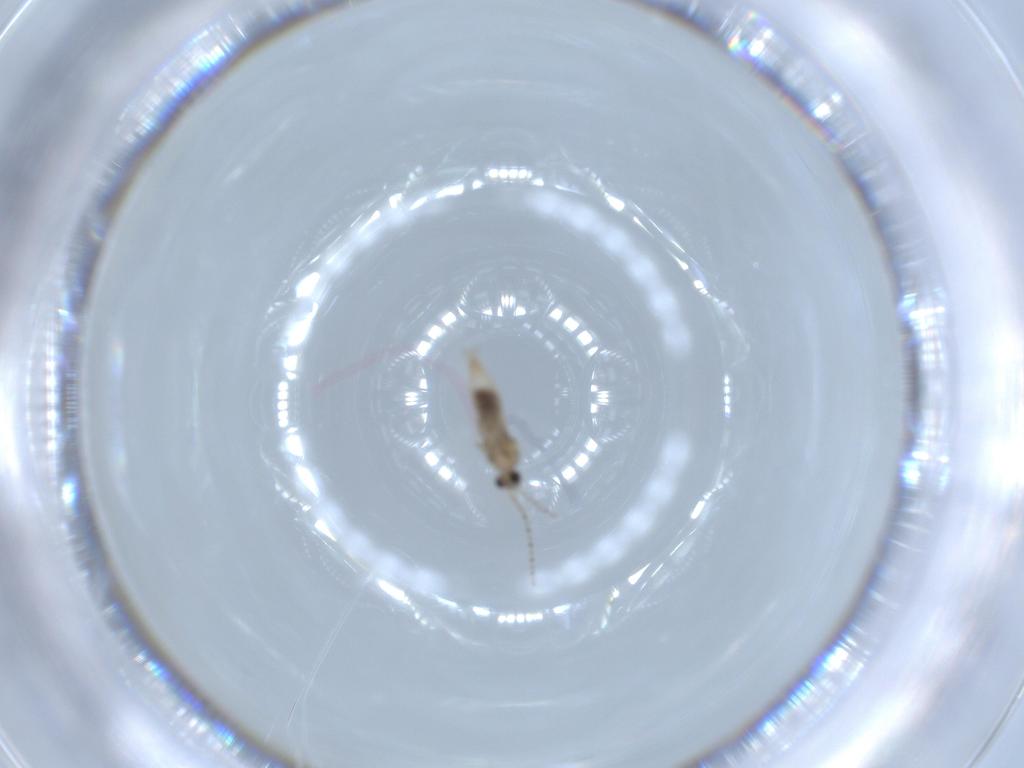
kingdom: Animalia
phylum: Arthropoda
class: Insecta
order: Diptera
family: Cecidomyiidae
